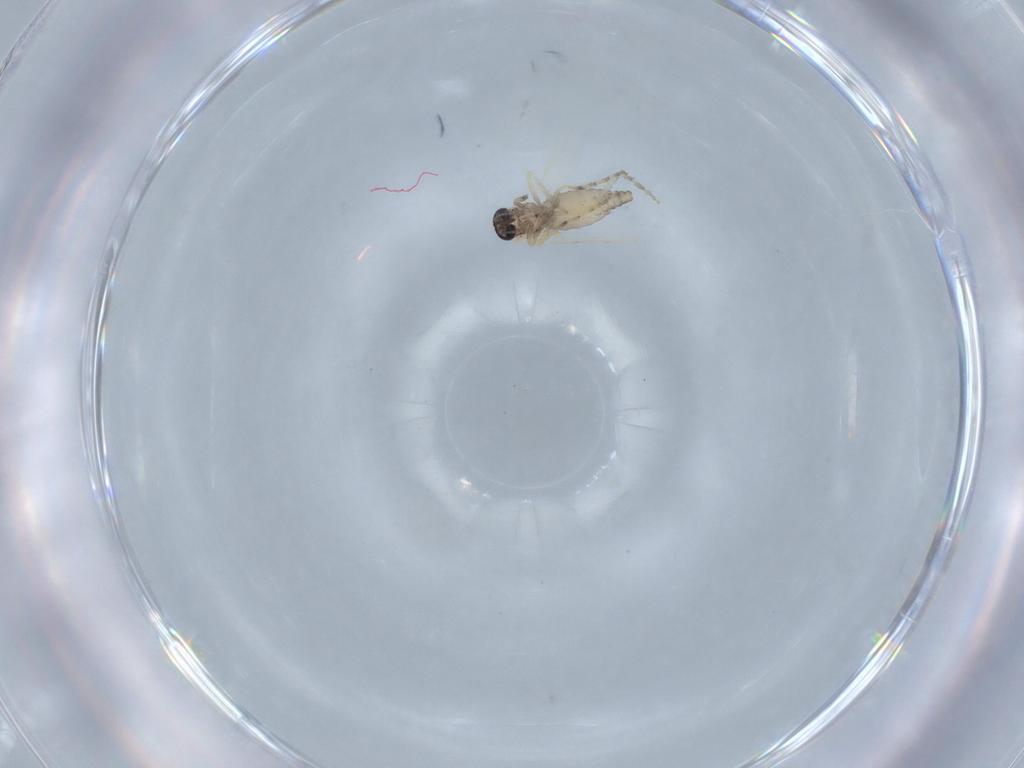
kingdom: Animalia
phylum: Arthropoda
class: Insecta
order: Diptera
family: Ceratopogonidae
